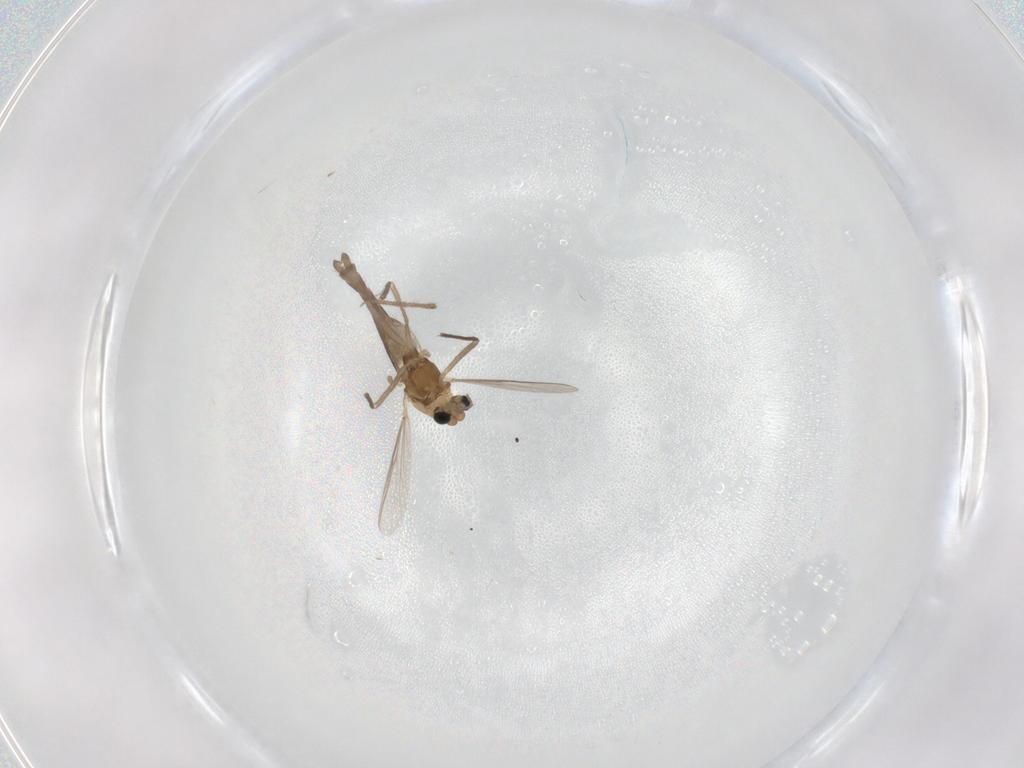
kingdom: Animalia
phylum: Arthropoda
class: Insecta
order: Diptera
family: Chironomidae
